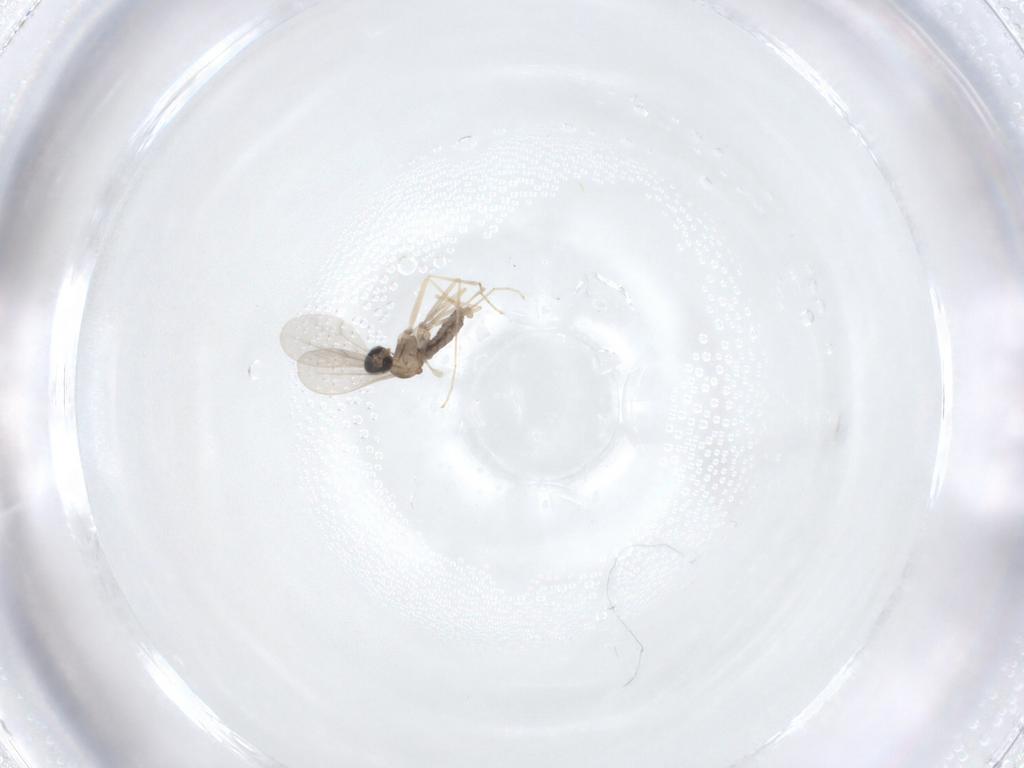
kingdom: Animalia
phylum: Arthropoda
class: Insecta
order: Diptera
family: Cecidomyiidae
